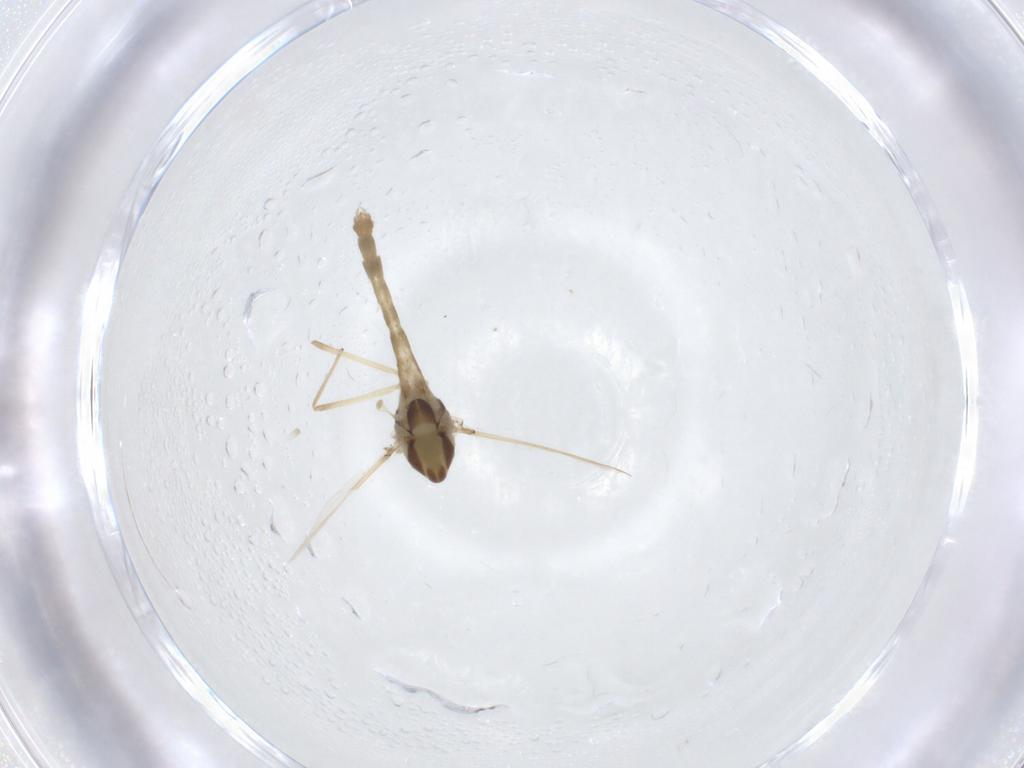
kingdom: Animalia
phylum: Arthropoda
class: Insecta
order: Diptera
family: Chironomidae
